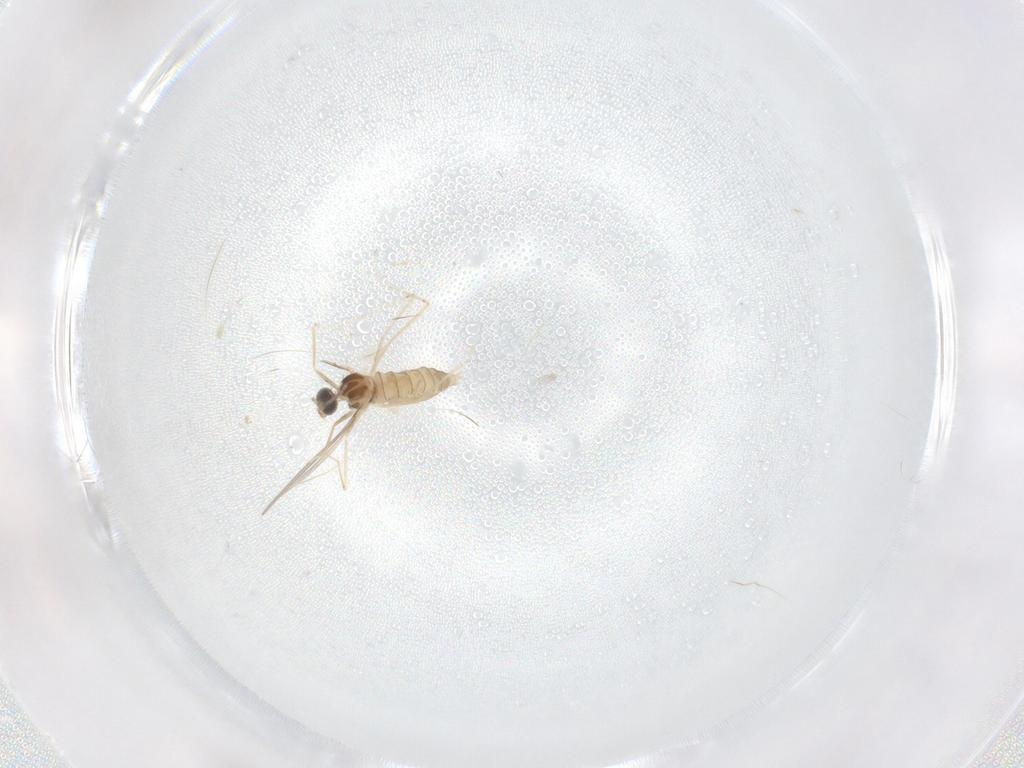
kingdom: Animalia
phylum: Arthropoda
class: Insecta
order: Diptera
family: Cecidomyiidae
